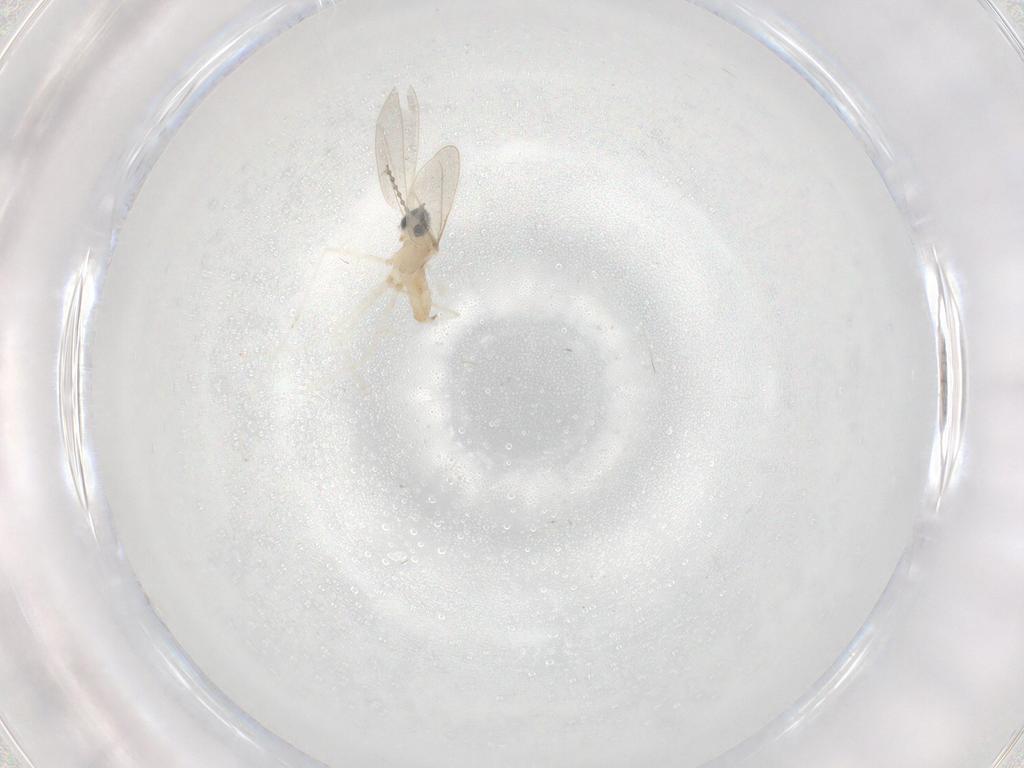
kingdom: Animalia
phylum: Arthropoda
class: Insecta
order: Diptera
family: Cecidomyiidae
